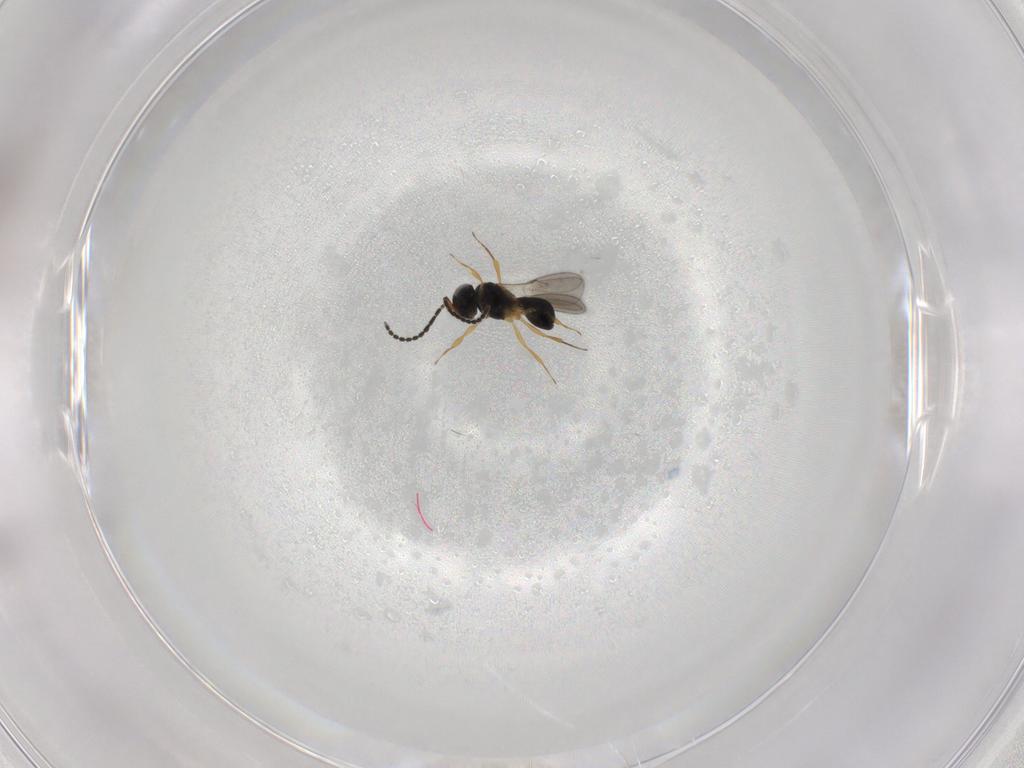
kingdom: Animalia
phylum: Arthropoda
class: Insecta
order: Hymenoptera
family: Scelionidae
